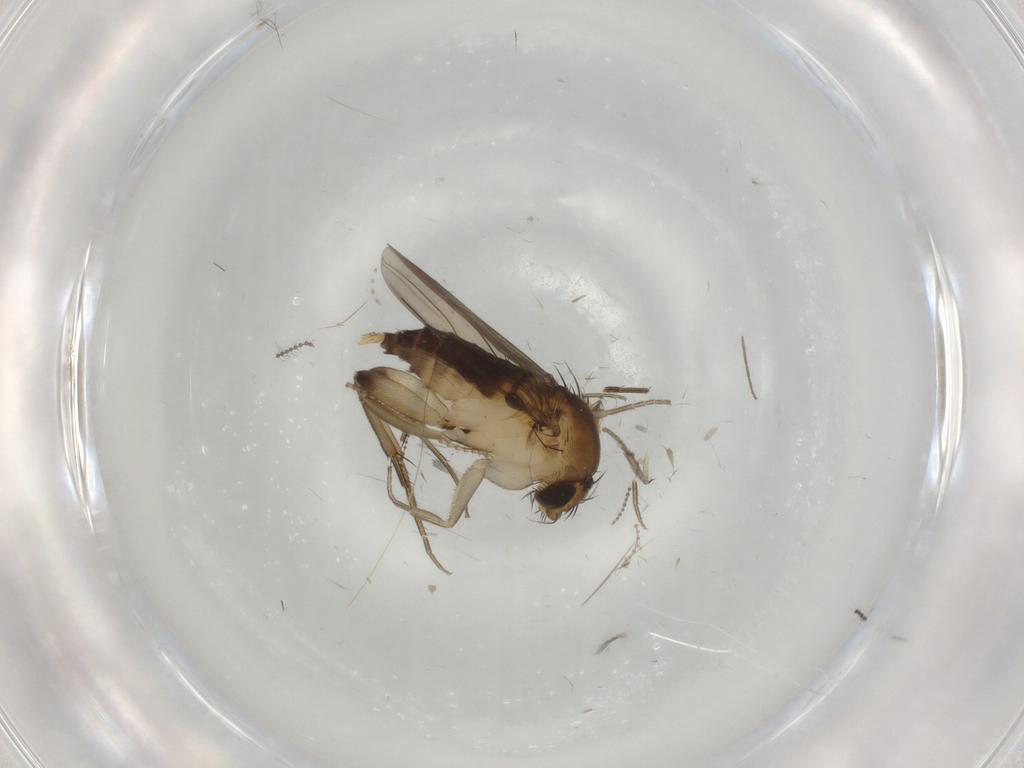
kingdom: Animalia
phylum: Arthropoda
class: Insecta
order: Diptera
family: Phoridae
